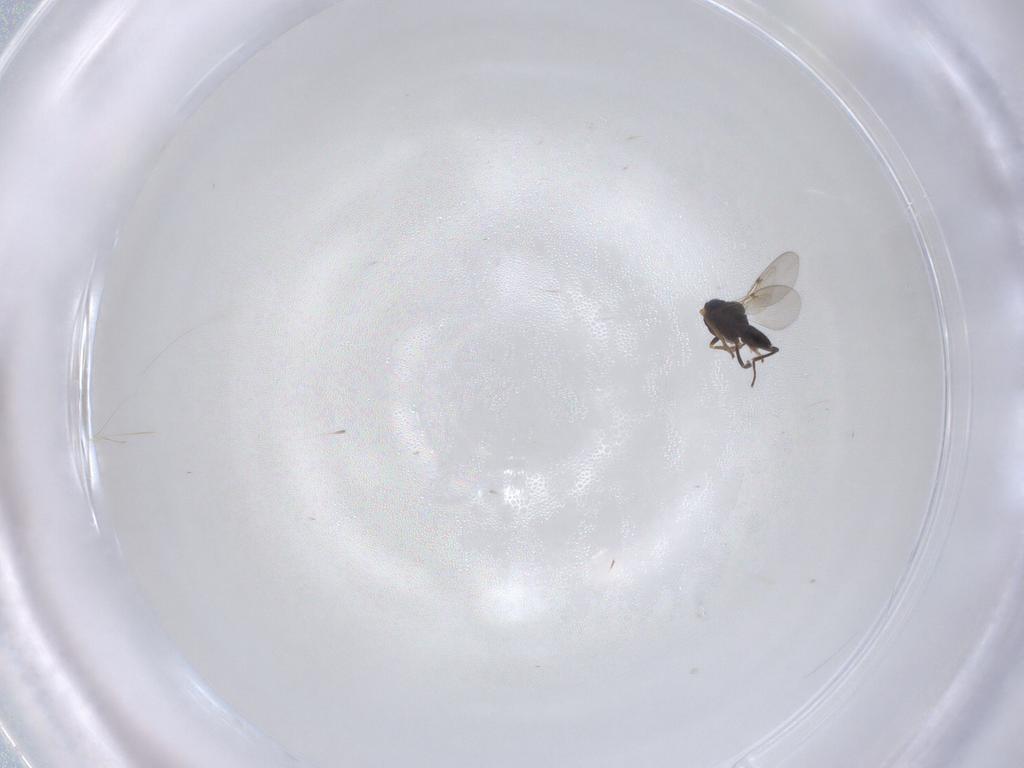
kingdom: Animalia
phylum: Arthropoda
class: Insecta
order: Hymenoptera
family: Encyrtidae
